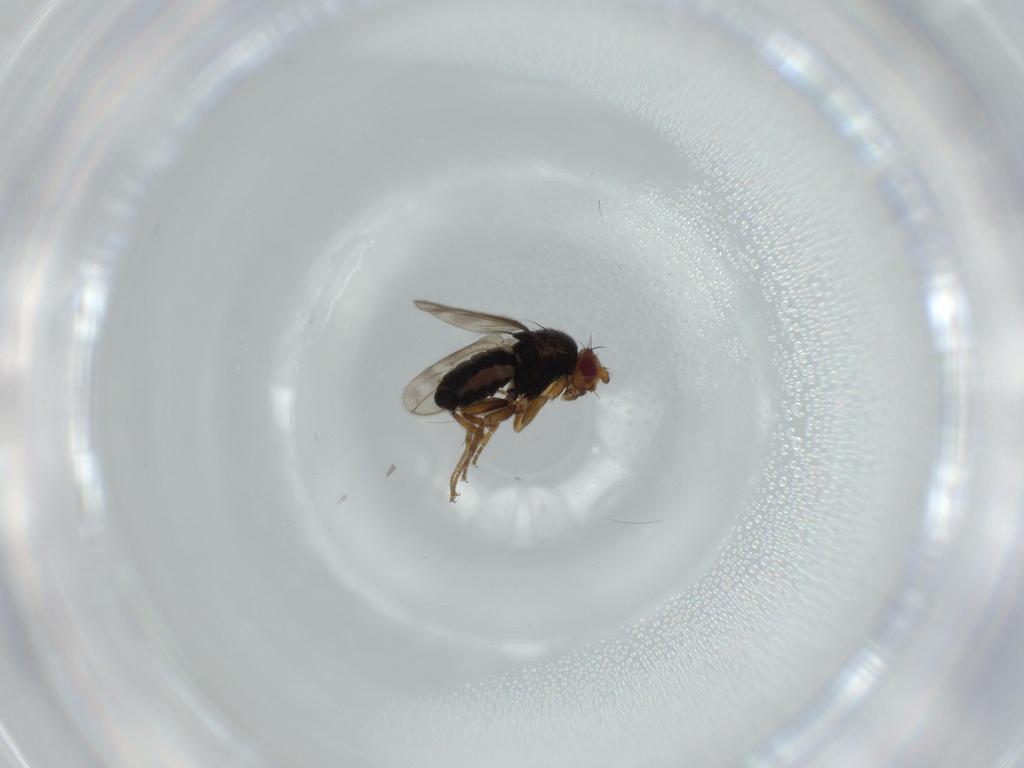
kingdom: Animalia
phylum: Arthropoda
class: Insecta
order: Diptera
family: Sphaeroceridae
